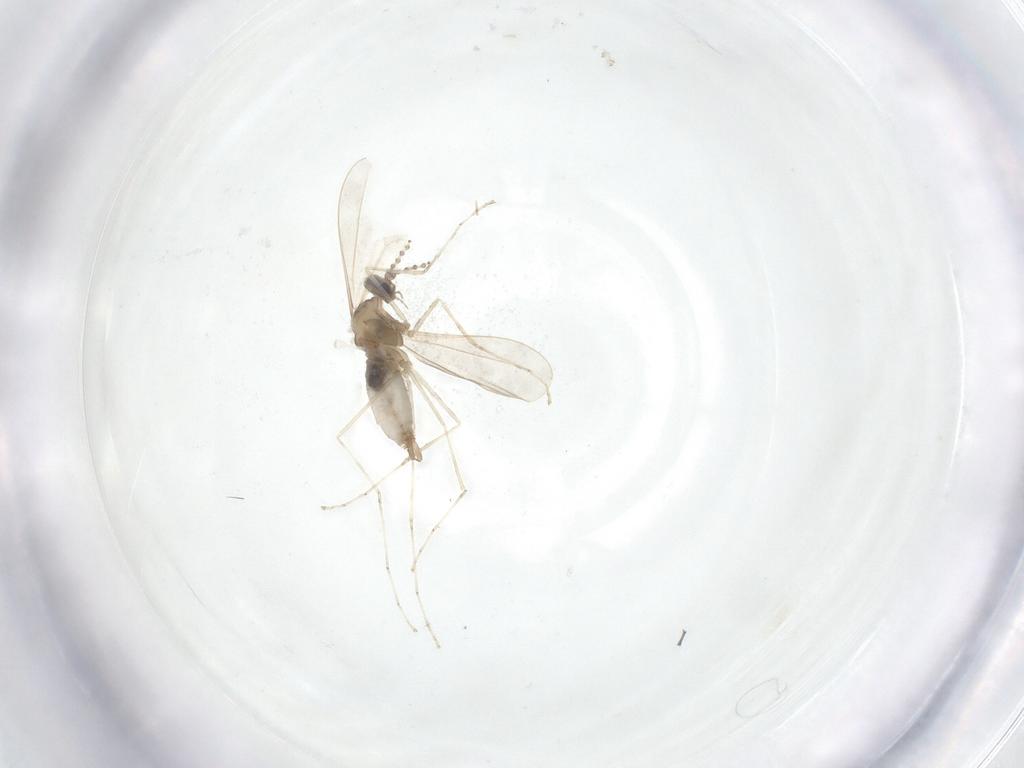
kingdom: Animalia
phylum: Arthropoda
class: Insecta
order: Diptera
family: Cecidomyiidae
